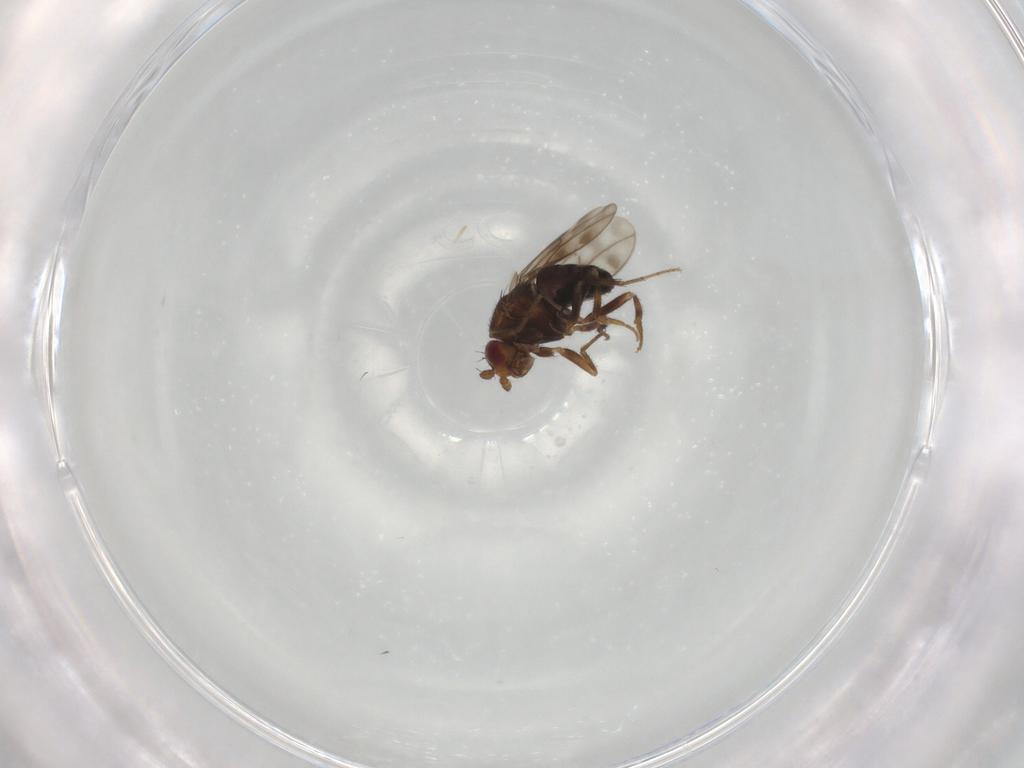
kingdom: Animalia
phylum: Arthropoda
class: Insecta
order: Diptera
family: Sphaeroceridae
